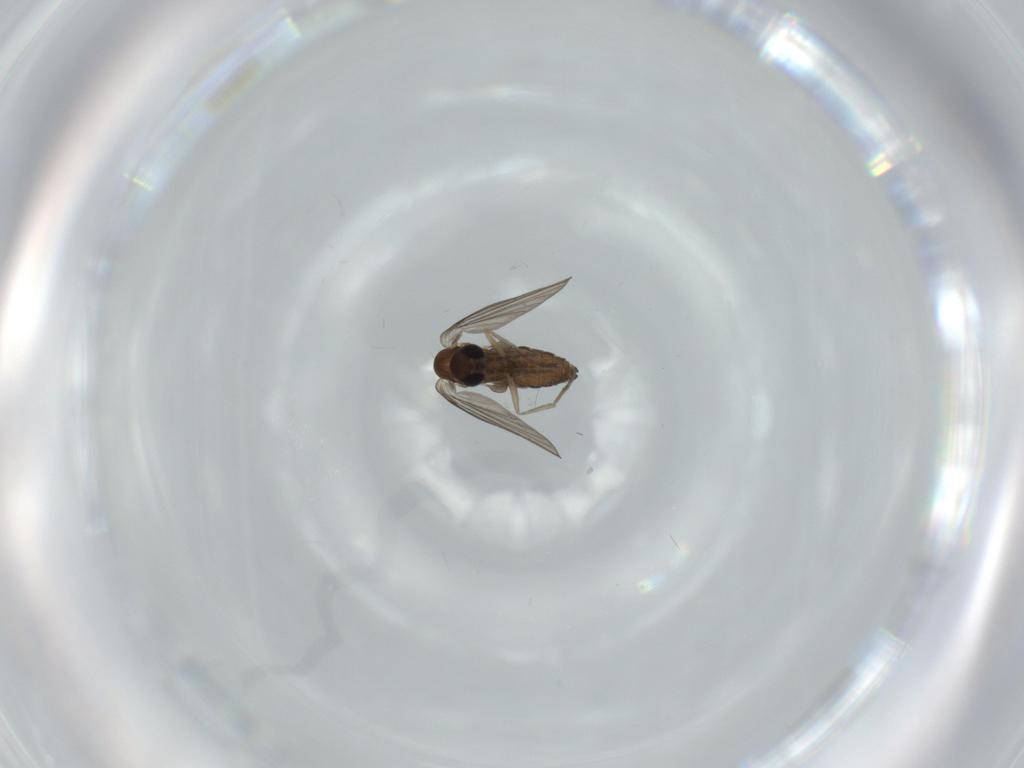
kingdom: Animalia
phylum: Arthropoda
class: Insecta
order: Diptera
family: Psychodidae
